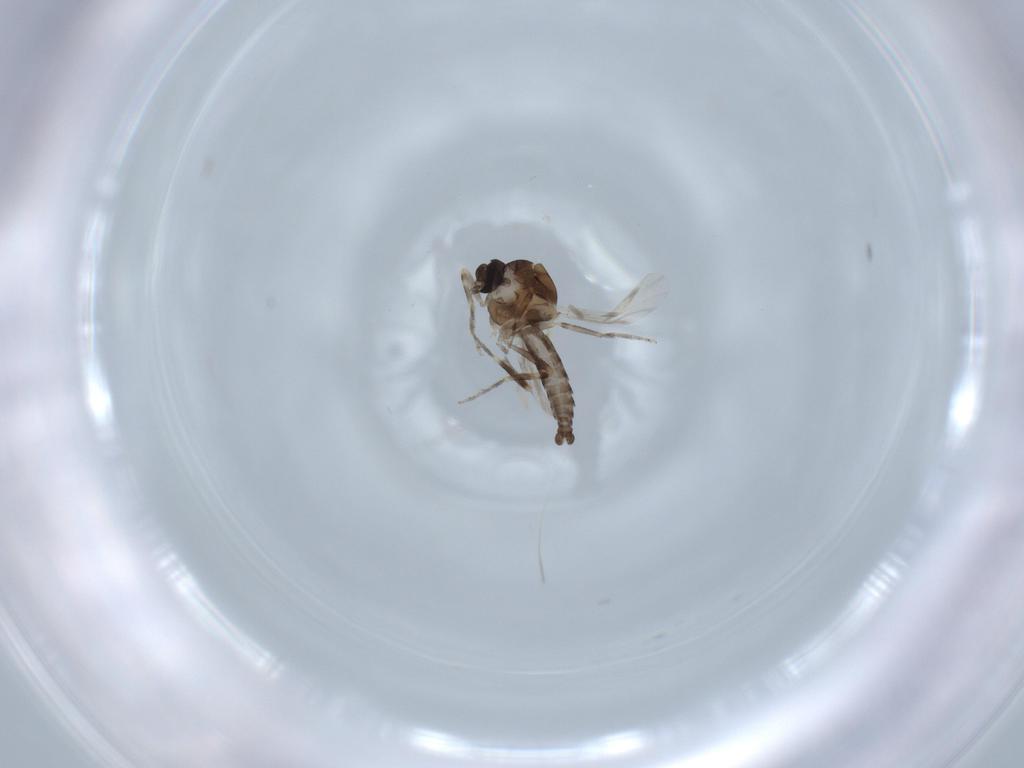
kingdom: Animalia
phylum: Arthropoda
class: Insecta
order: Diptera
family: Ceratopogonidae
